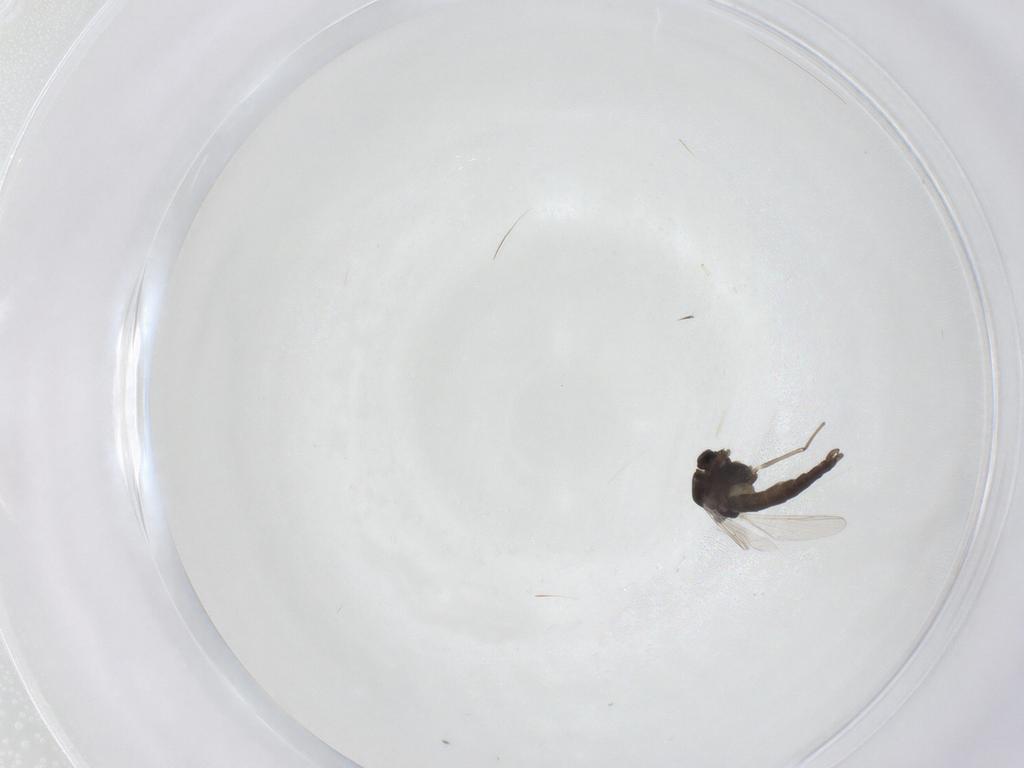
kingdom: Animalia
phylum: Arthropoda
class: Insecta
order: Diptera
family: Chironomidae
